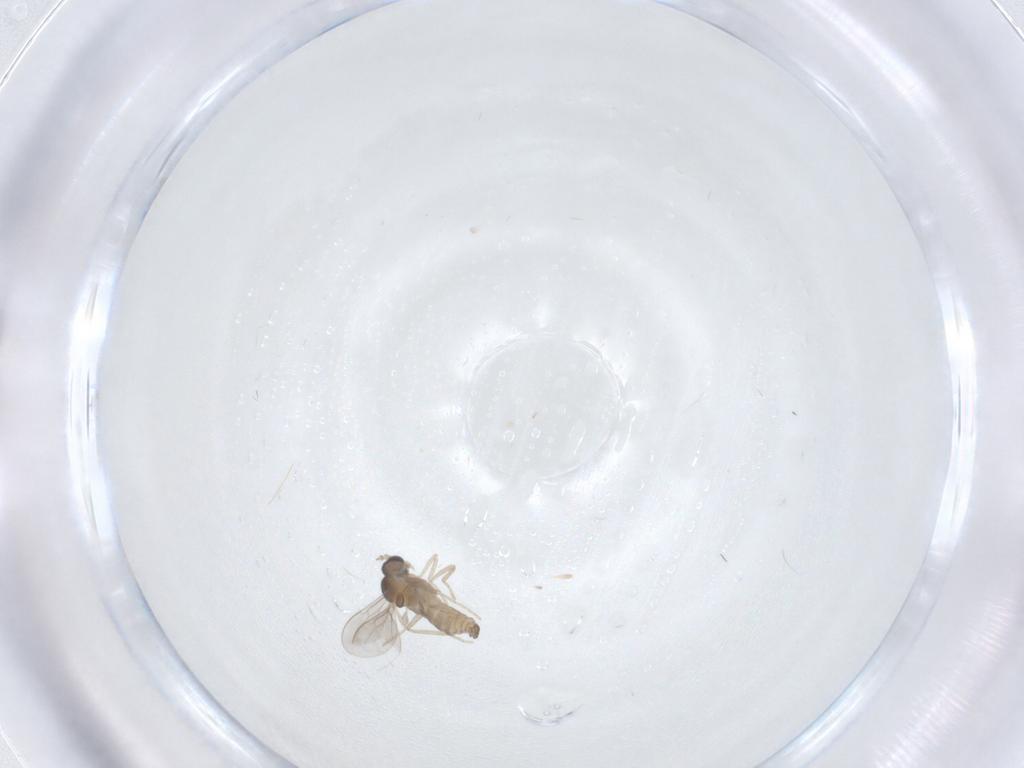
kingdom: Animalia
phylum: Arthropoda
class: Insecta
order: Diptera
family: Cecidomyiidae
